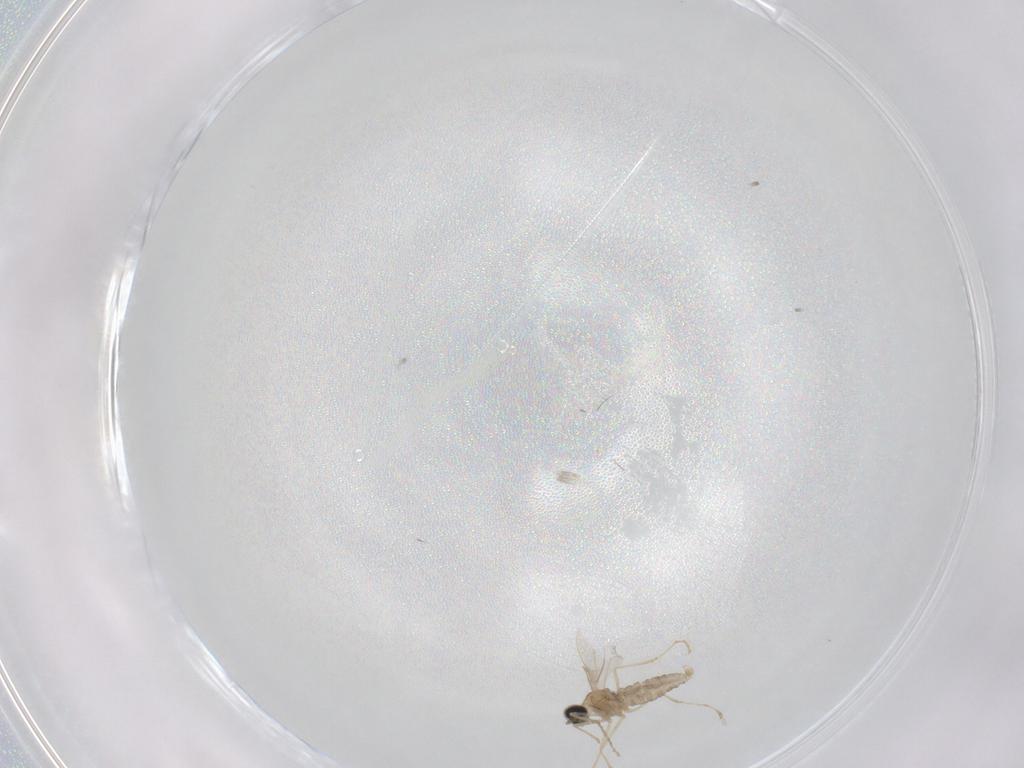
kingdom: Animalia
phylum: Arthropoda
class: Insecta
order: Diptera
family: Cecidomyiidae
